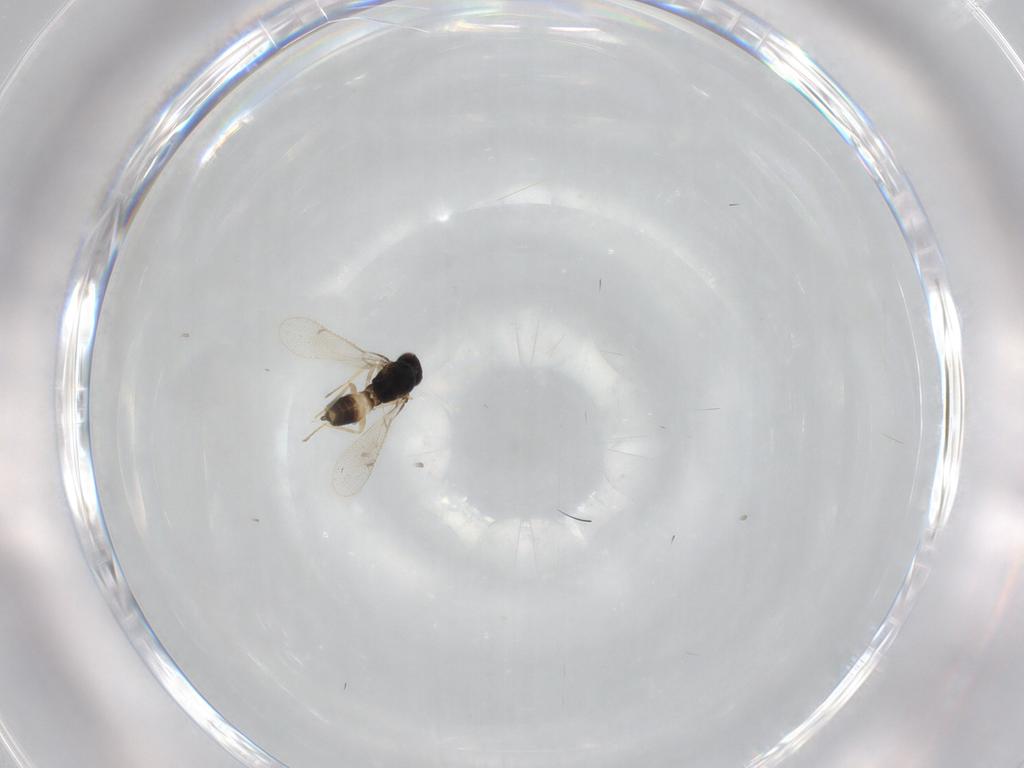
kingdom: Animalia
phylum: Arthropoda
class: Insecta
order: Hymenoptera
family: Eulophidae
